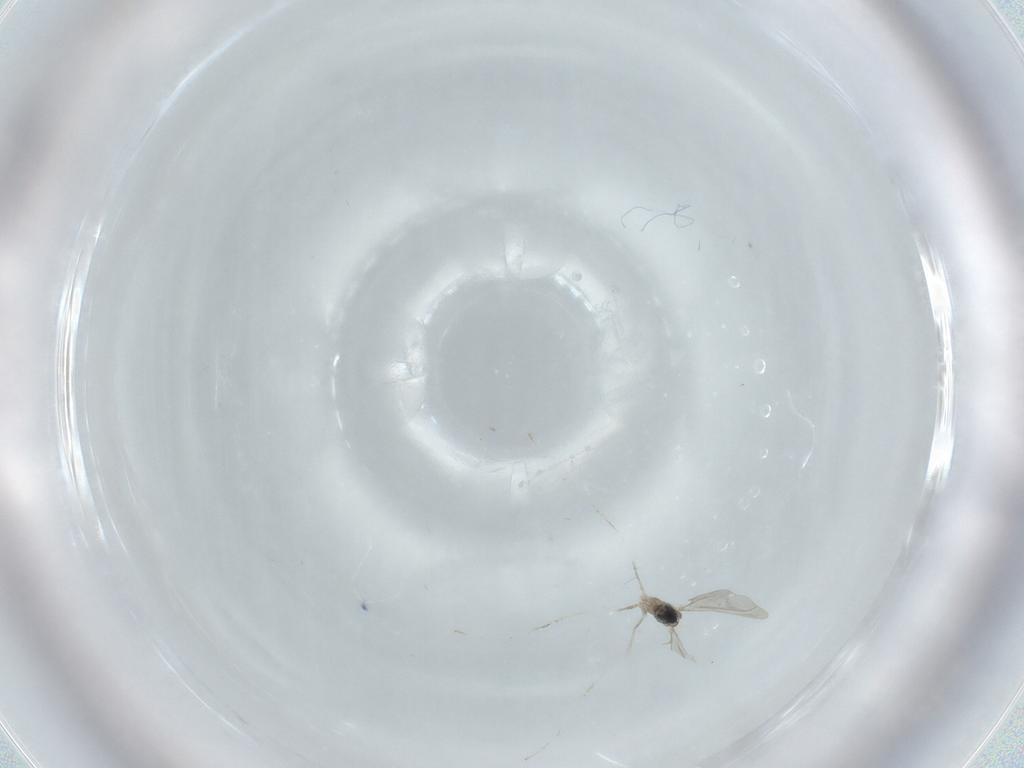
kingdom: Animalia
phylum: Arthropoda
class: Insecta
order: Diptera
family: Cecidomyiidae
